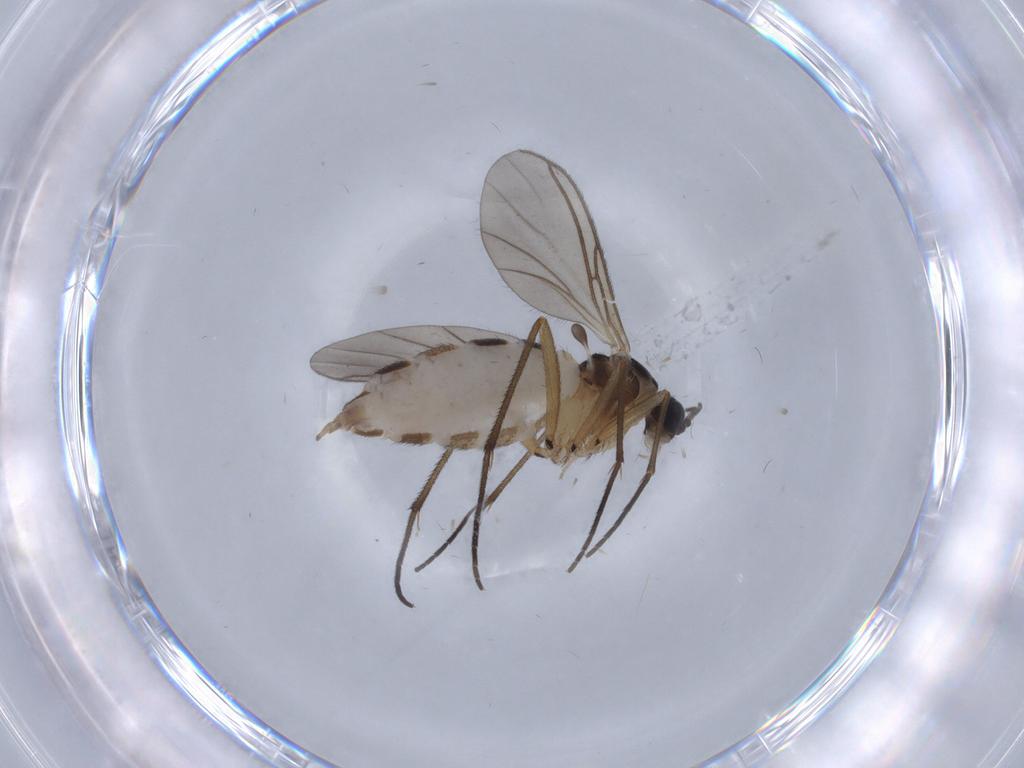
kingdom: Animalia
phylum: Arthropoda
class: Insecta
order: Diptera
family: Sciaridae
